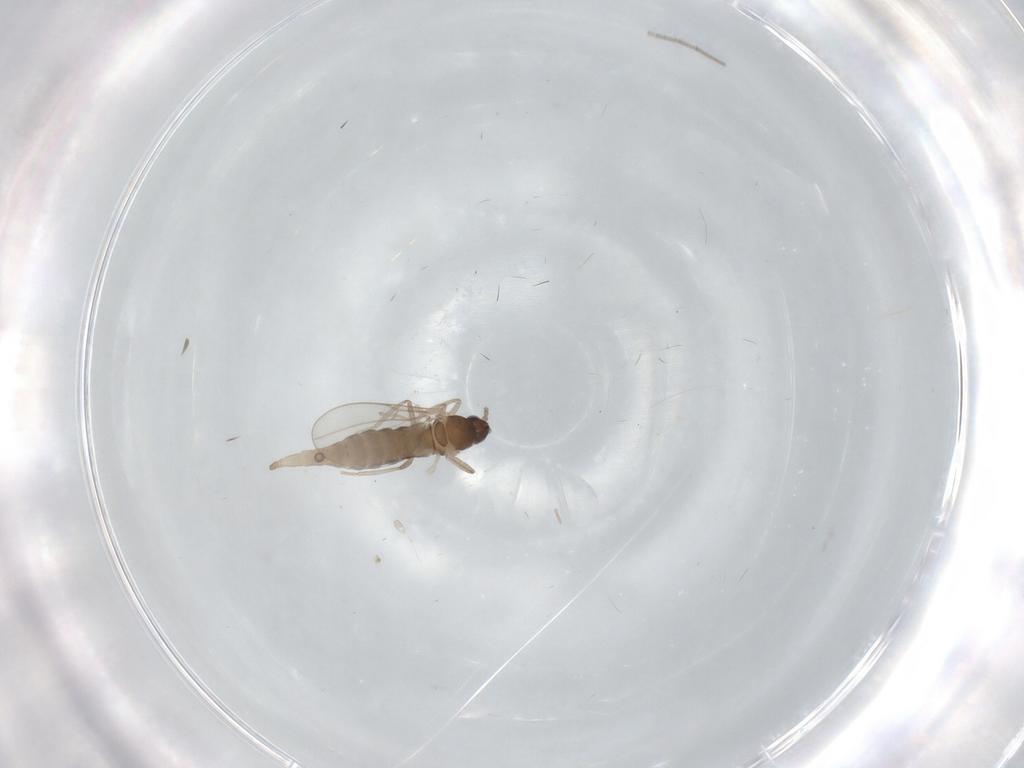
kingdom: Animalia
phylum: Arthropoda
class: Insecta
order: Diptera
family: Cecidomyiidae
